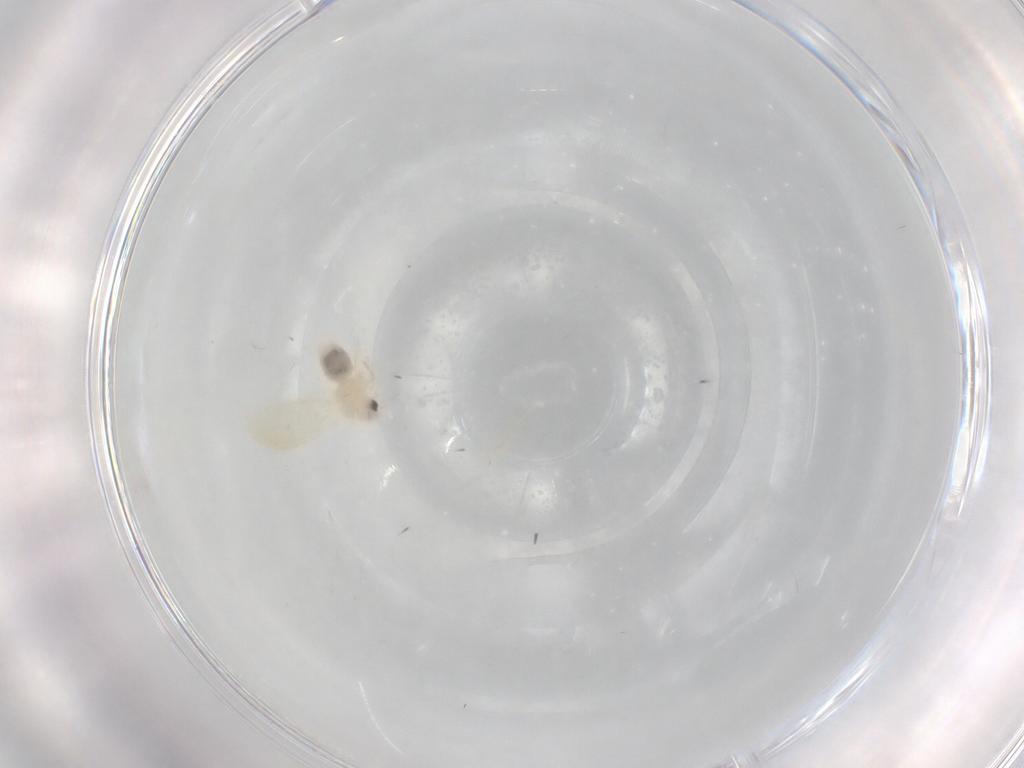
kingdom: Animalia
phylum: Arthropoda
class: Insecta
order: Hemiptera
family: Aleyrodidae
